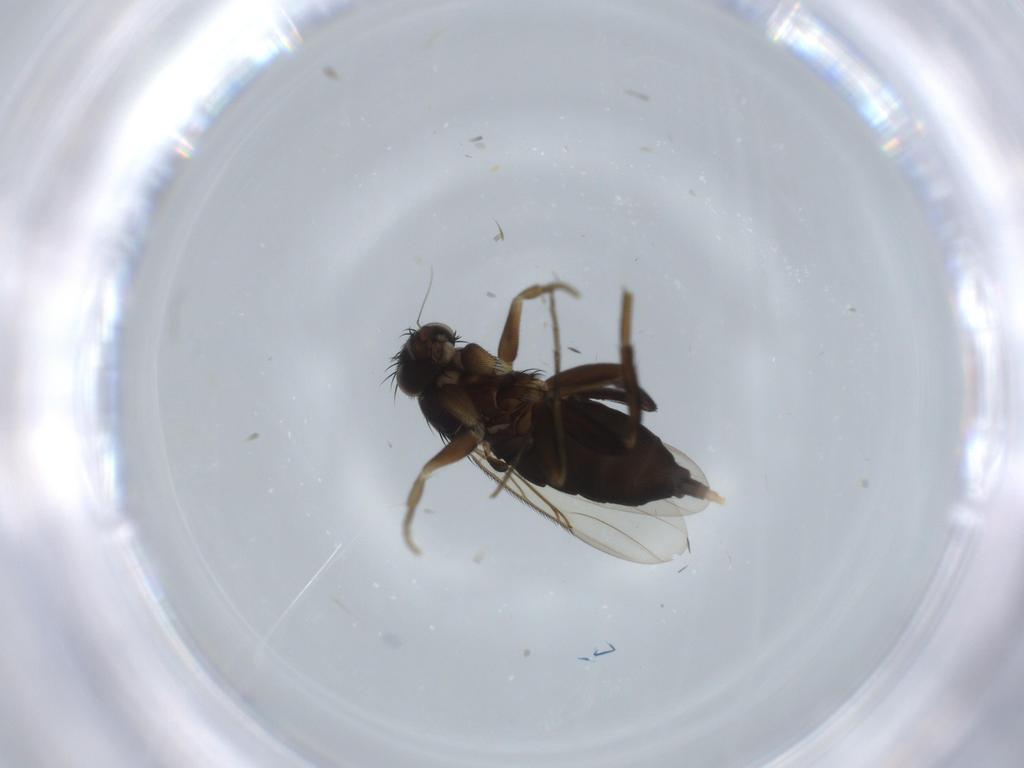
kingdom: Animalia
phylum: Arthropoda
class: Insecta
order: Diptera
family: Phoridae
